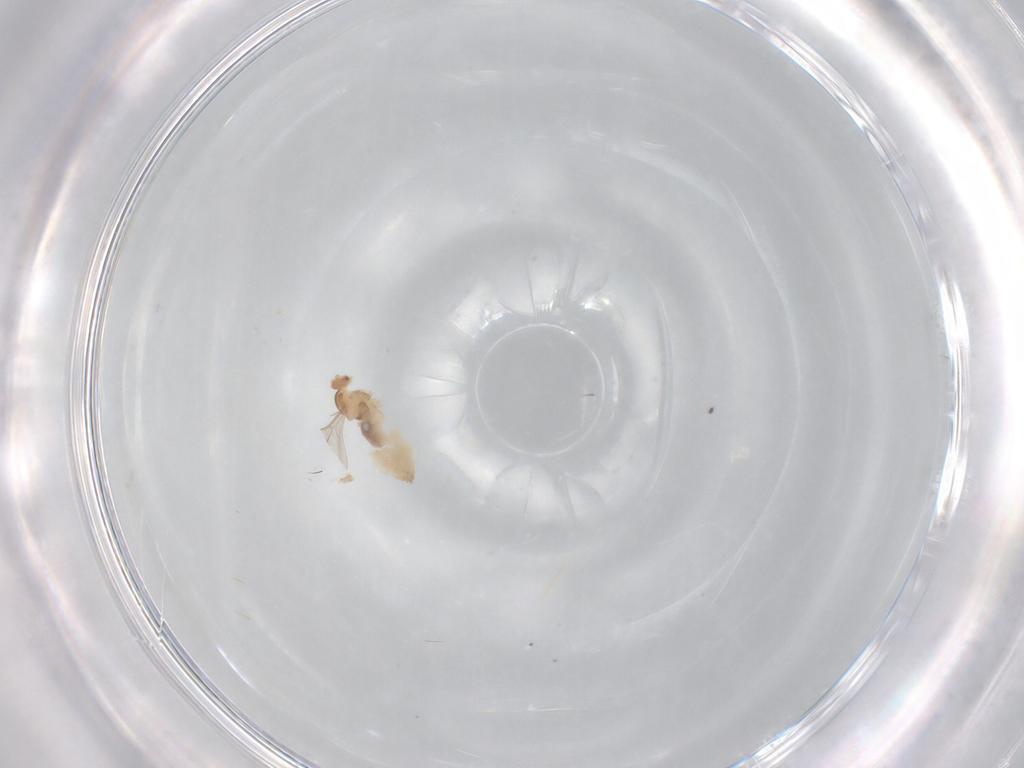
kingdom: Animalia
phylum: Arthropoda
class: Insecta
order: Diptera
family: Cecidomyiidae
